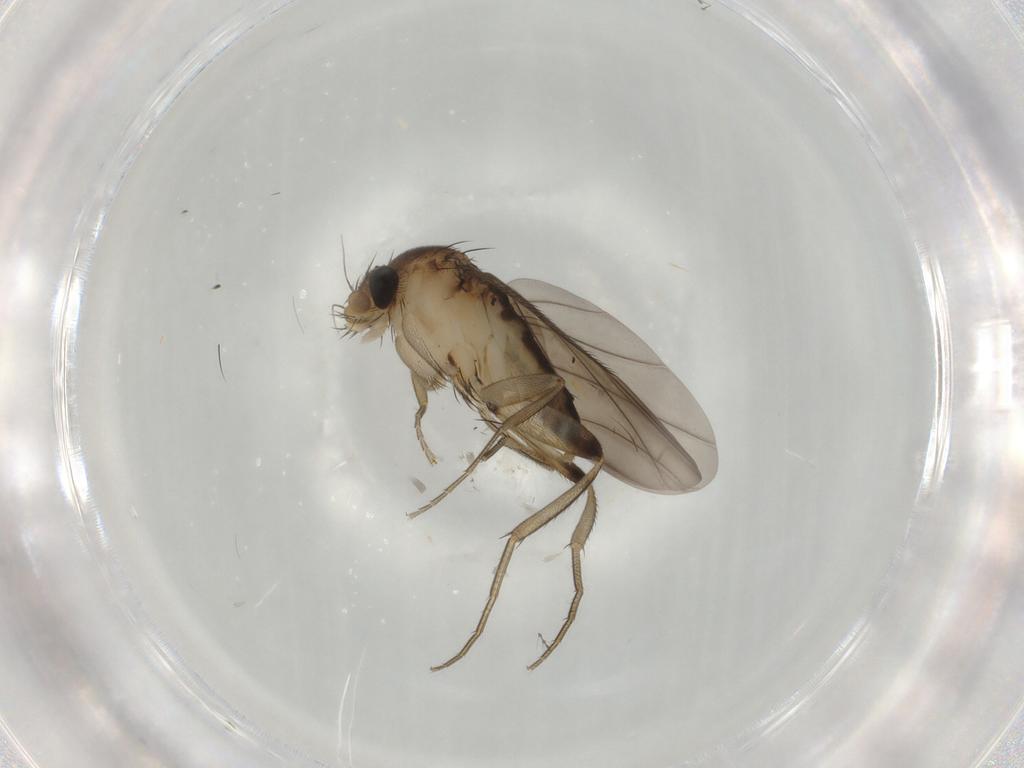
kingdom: Animalia
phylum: Arthropoda
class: Insecta
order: Diptera
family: Phoridae
